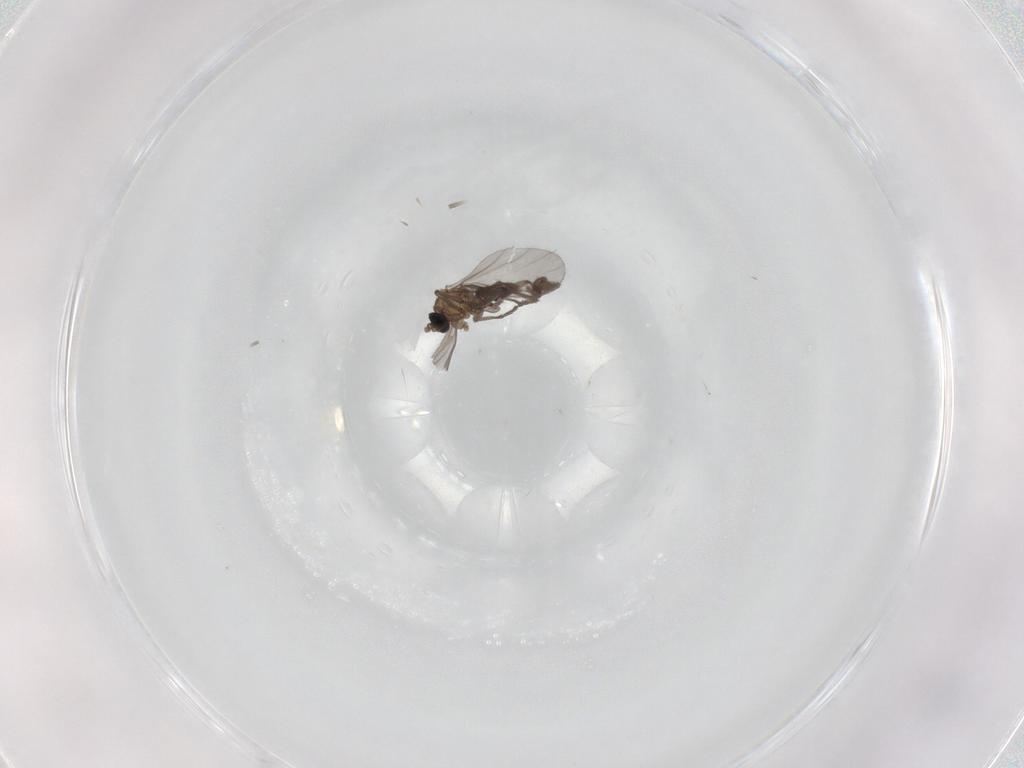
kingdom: Animalia
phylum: Arthropoda
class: Insecta
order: Diptera
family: Sciaridae
